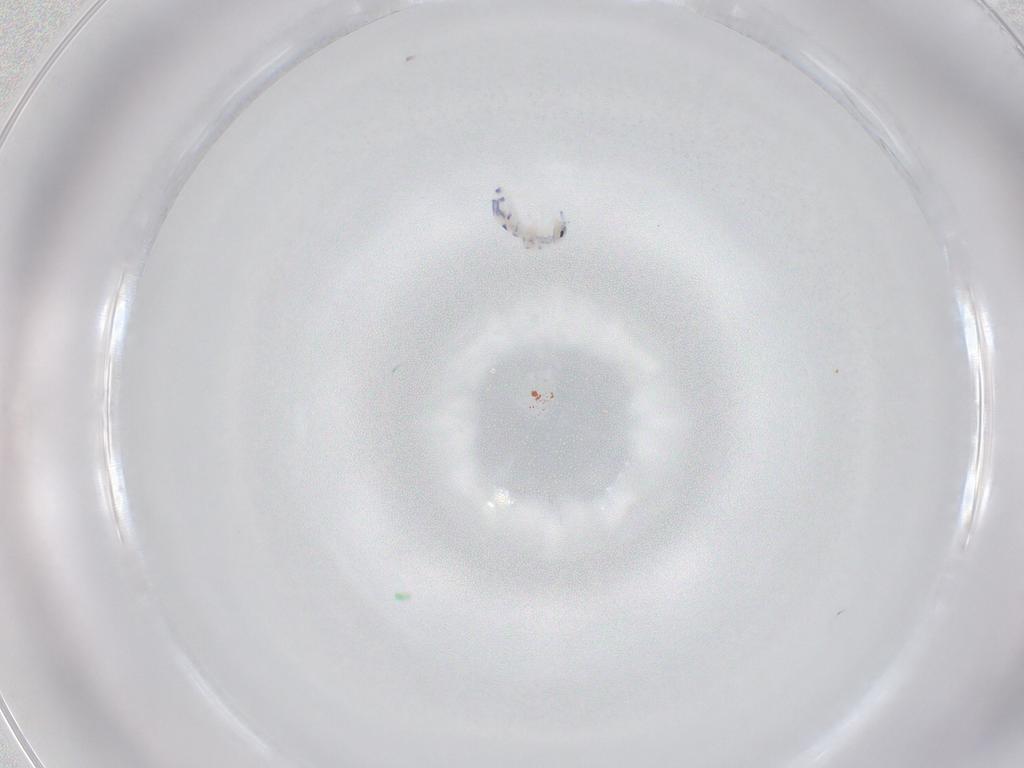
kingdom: Animalia
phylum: Arthropoda
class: Collembola
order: Entomobryomorpha
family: Entomobryidae
